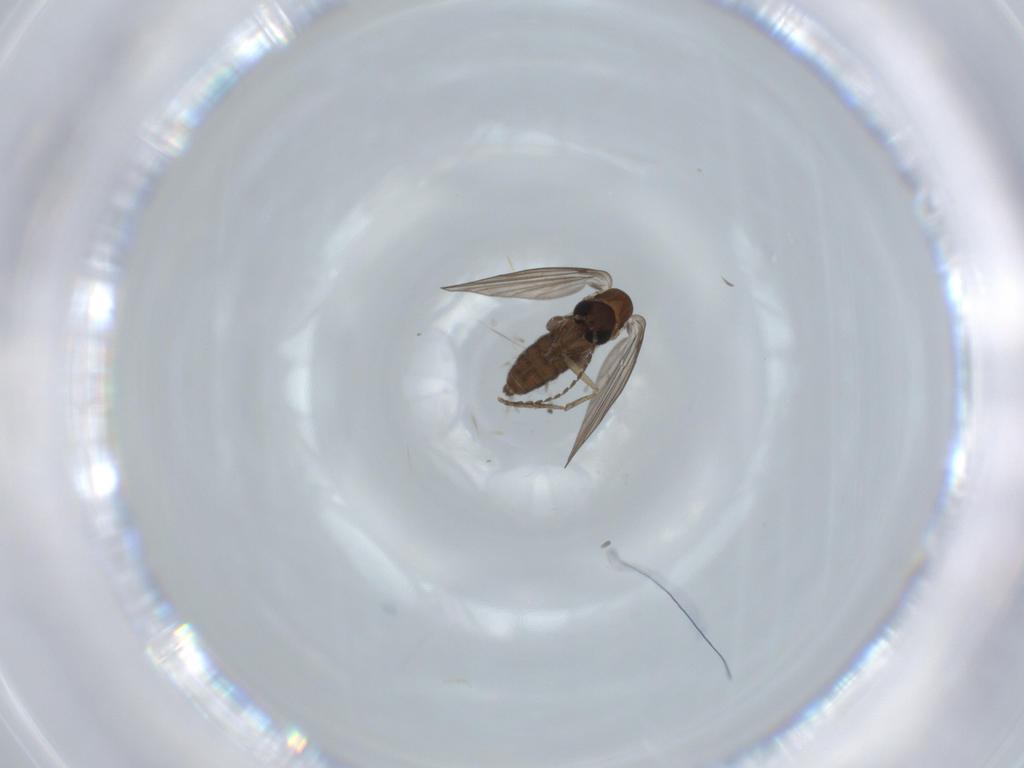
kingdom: Animalia
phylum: Arthropoda
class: Insecta
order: Diptera
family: Psychodidae
